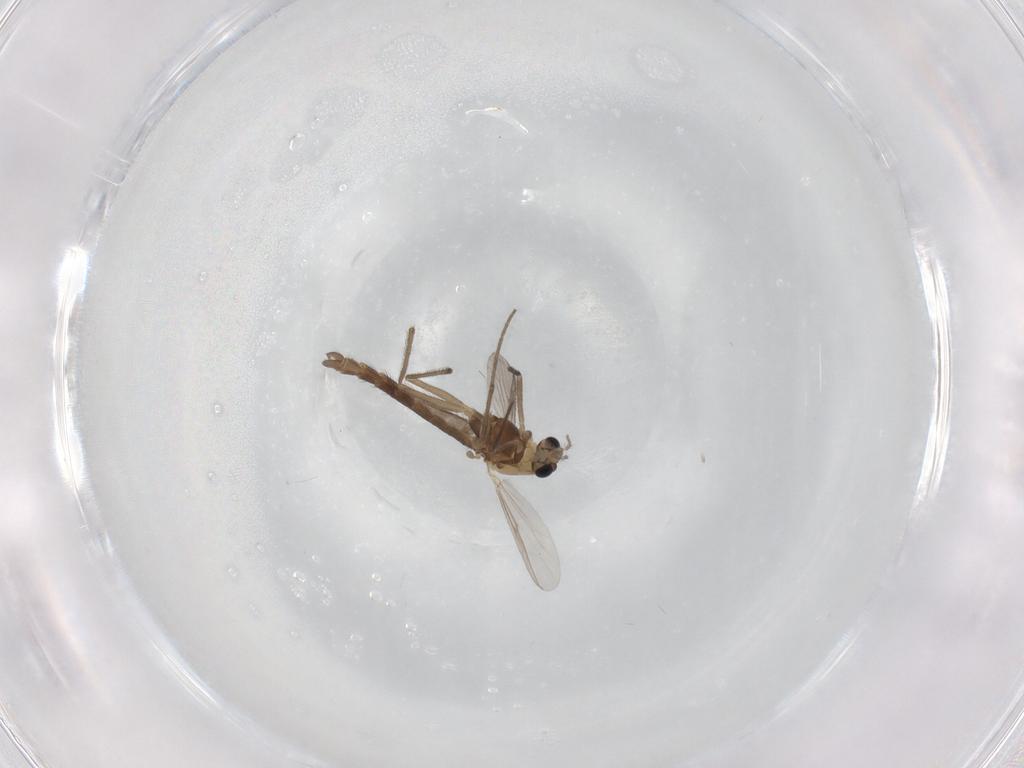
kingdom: Animalia
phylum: Arthropoda
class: Insecta
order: Diptera
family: Chironomidae
